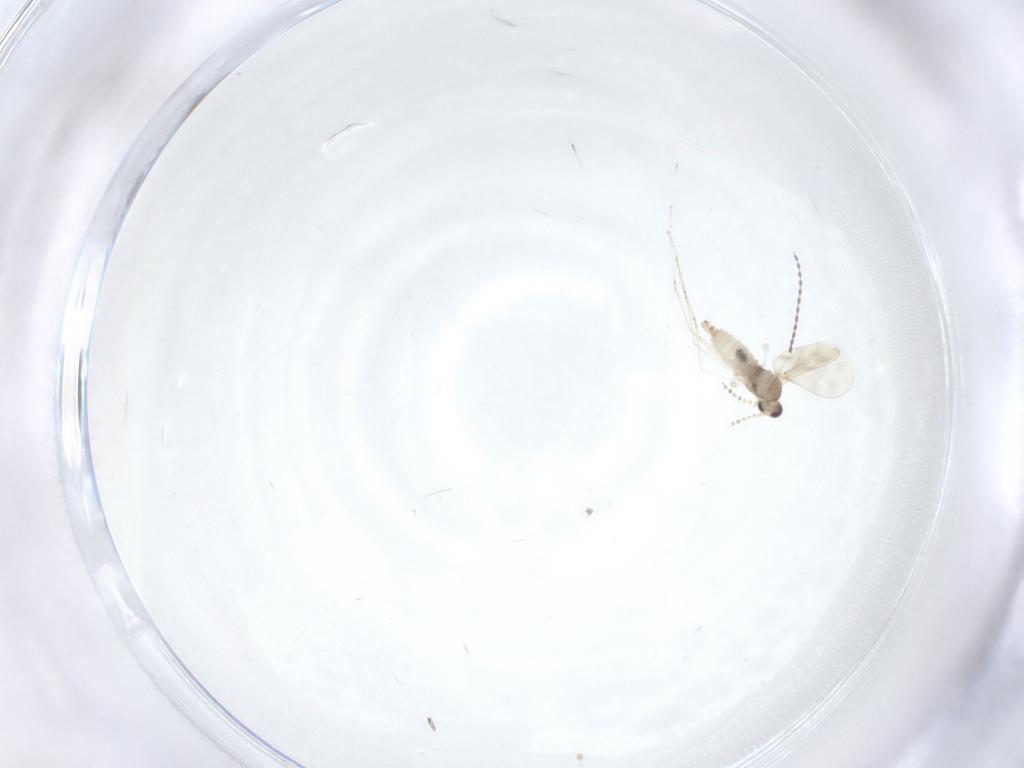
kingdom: Animalia
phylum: Arthropoda
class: Insecta
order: Diptera
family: Cecidomyiidae
